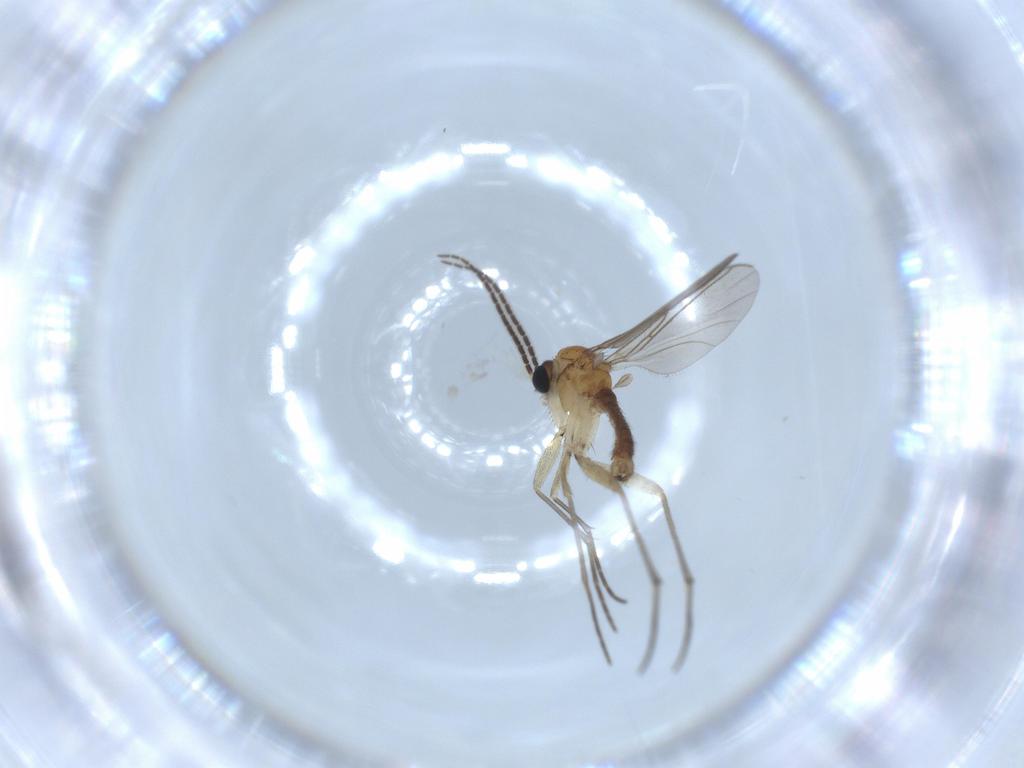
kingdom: Animalia
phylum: Arthropoda
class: Insecta
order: Diptera
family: Sciaridae
